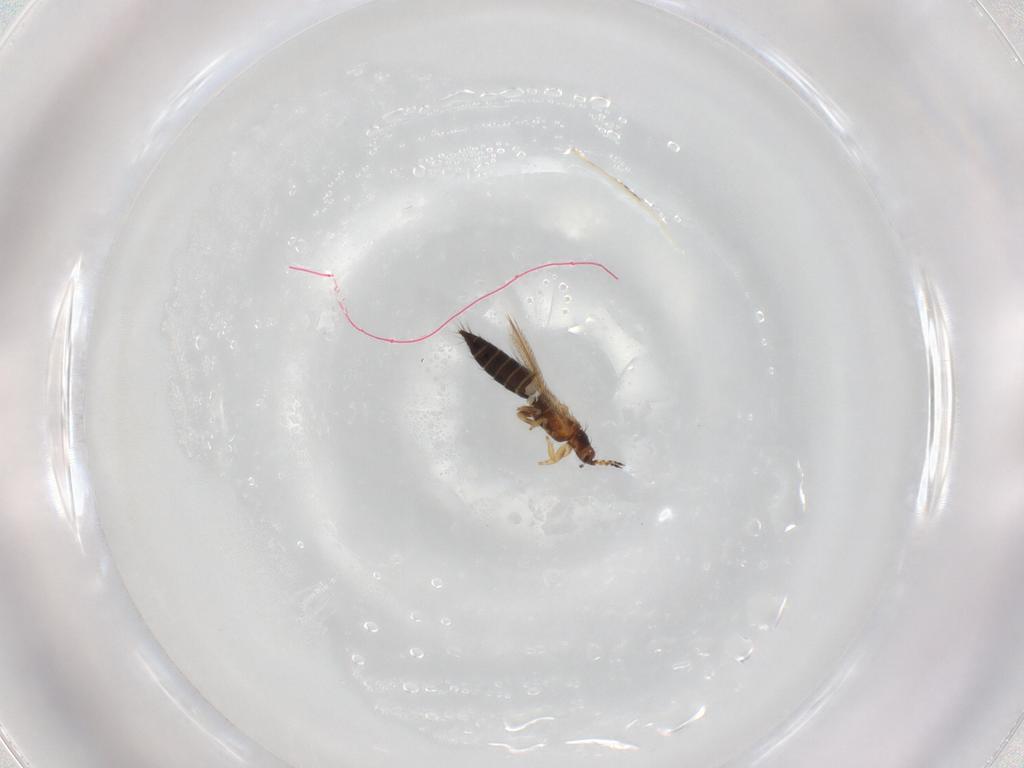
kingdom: Animalia
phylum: Arthropoda
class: Insecta
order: Thysanoptera
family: Thripidae
